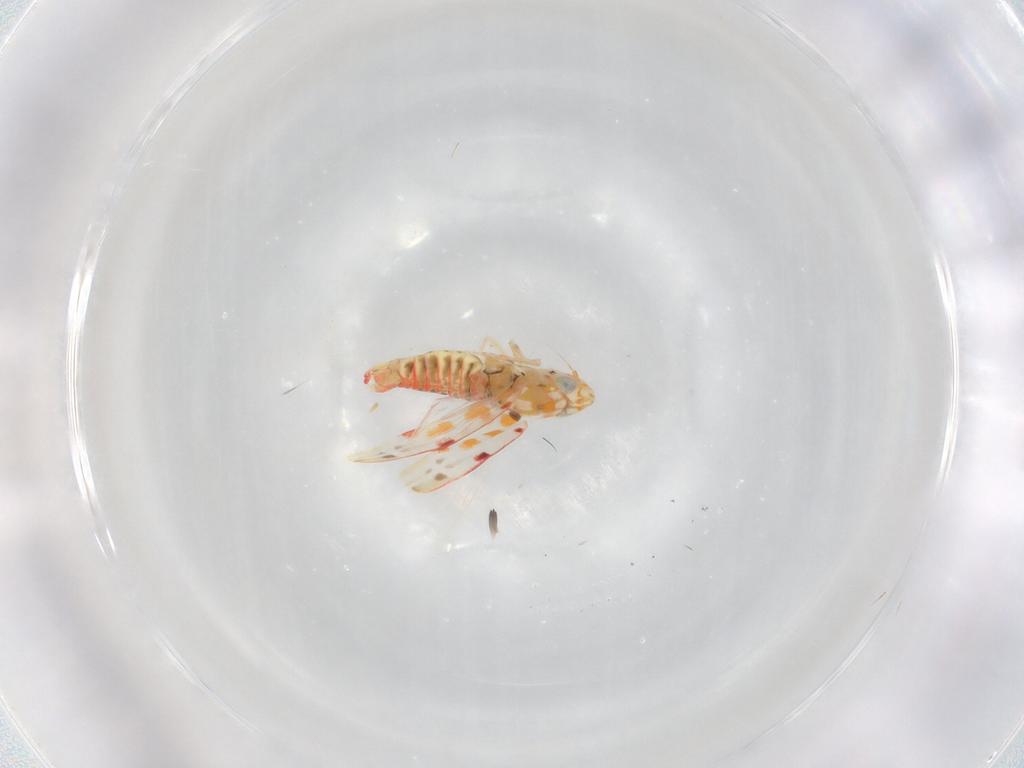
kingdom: Animalia
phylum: Arthropoda
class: Insecta
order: Hemiptera
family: Cicadellidae
